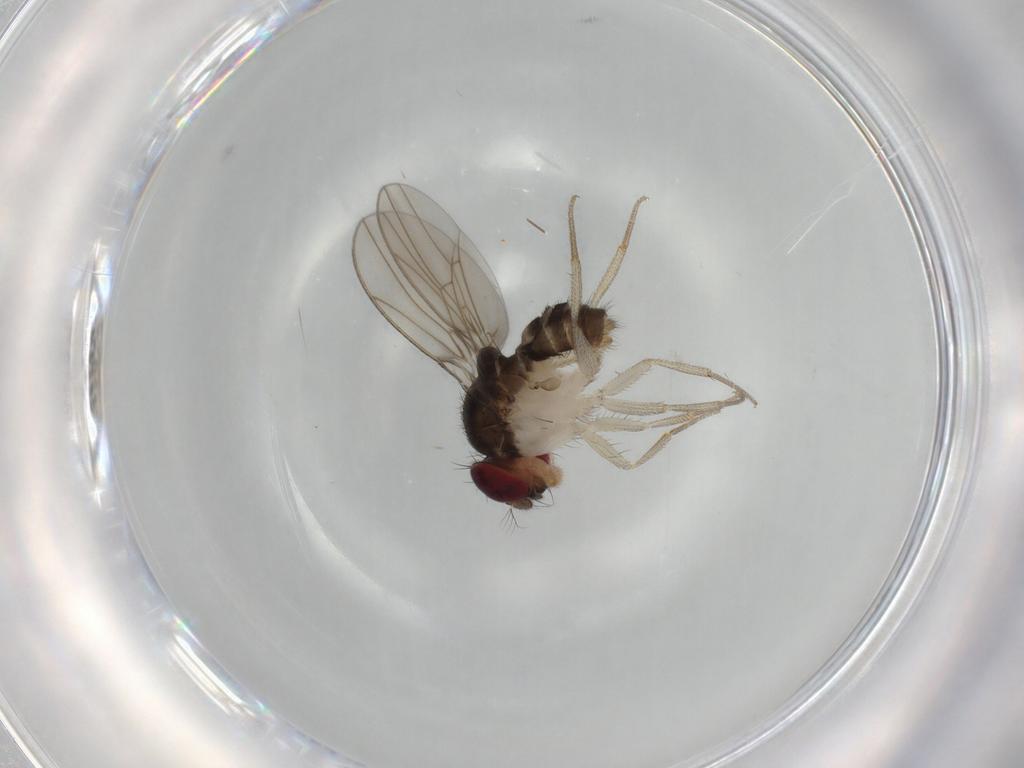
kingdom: Animalia
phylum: Arthropoda
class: Insecta
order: Diptera
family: Drosophilidae
